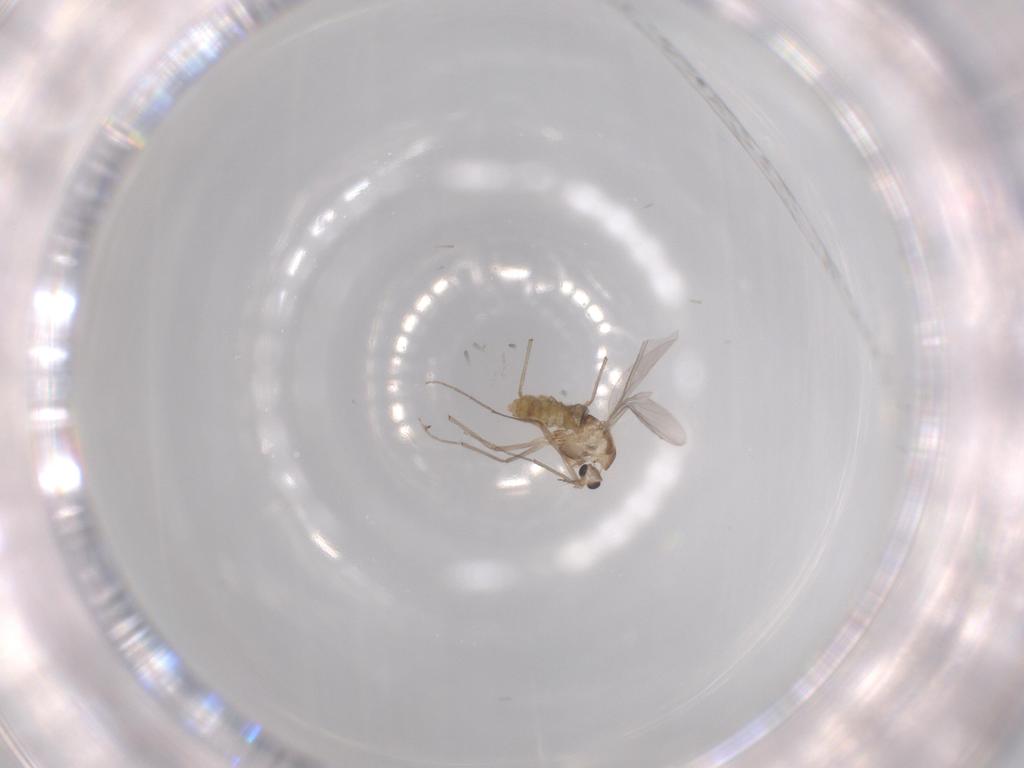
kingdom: Animalia
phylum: Arthropoda
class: Insecta
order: Diptera
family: Chironomidae
